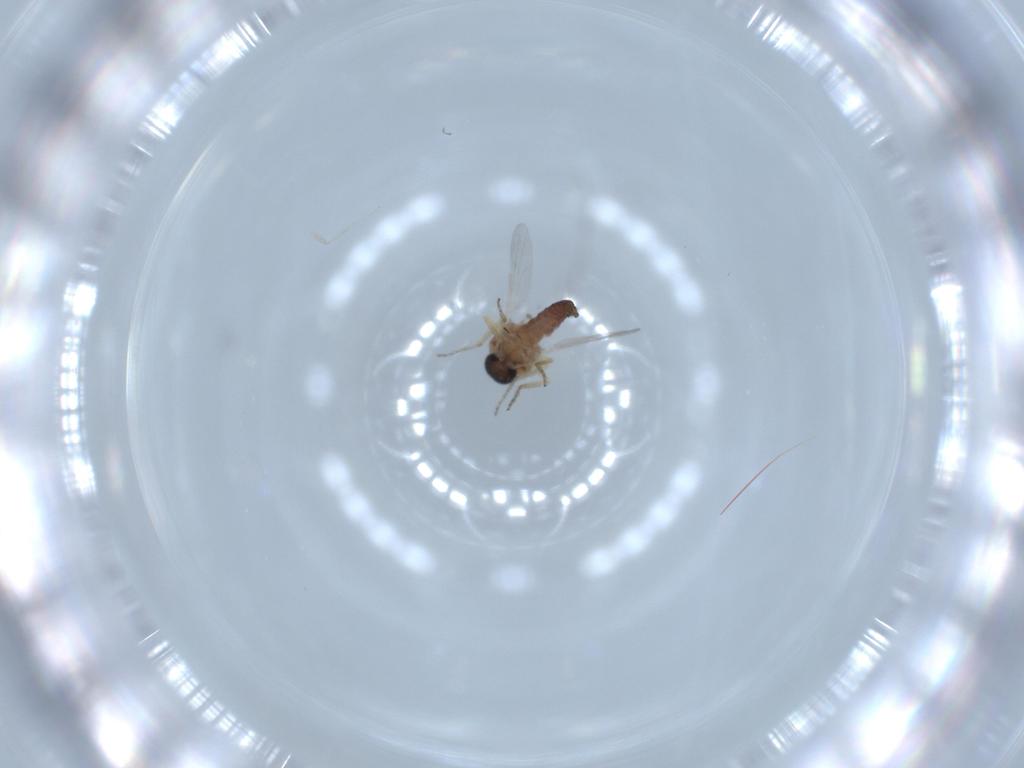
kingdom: Animalia
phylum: Arthropoda
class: Insecta
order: Diptera
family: Ceratopogonidae
